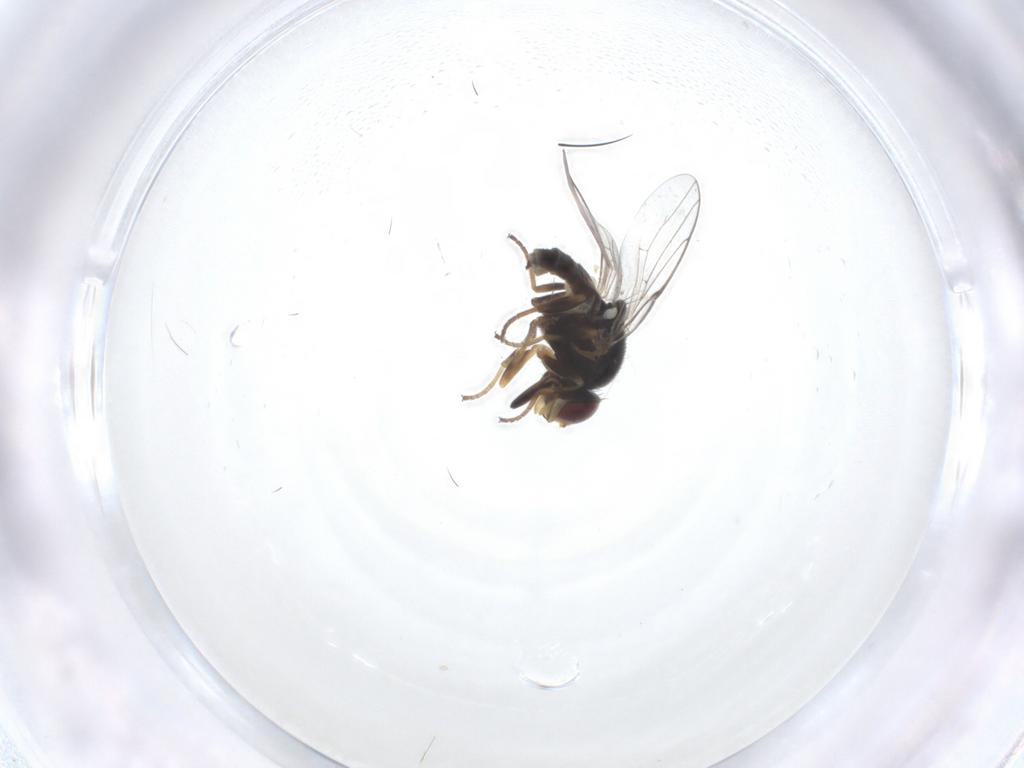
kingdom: Animalia
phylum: Arthropoda
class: Insecta
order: Diptera
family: Chloropidae
